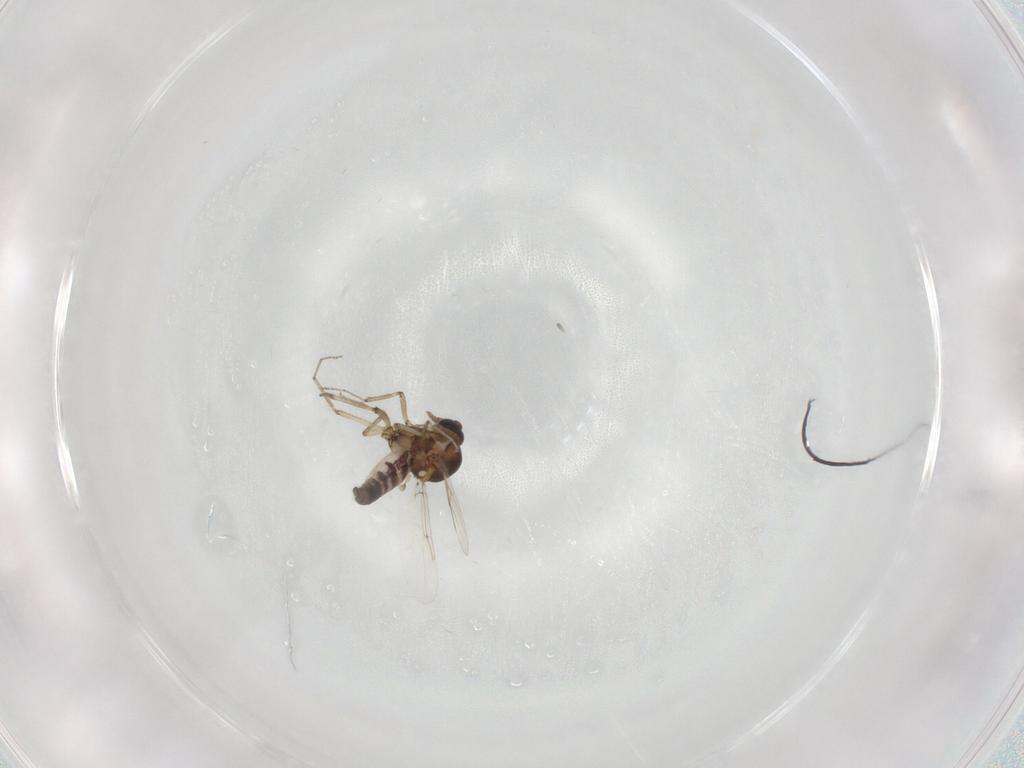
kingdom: Animalia
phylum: Arthropoda
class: Insecta
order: Diptera
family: Ceratopogonidae
